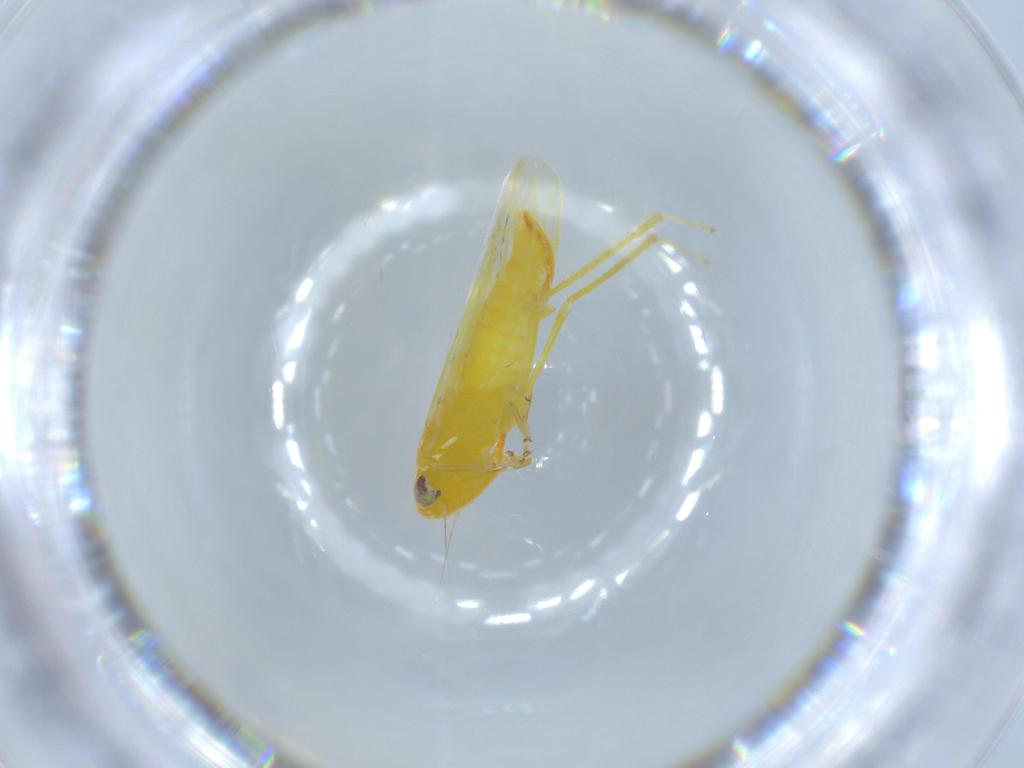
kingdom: Animalia
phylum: Arthropoda
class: Insecta
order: Hemiptera
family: Cicadellidae
